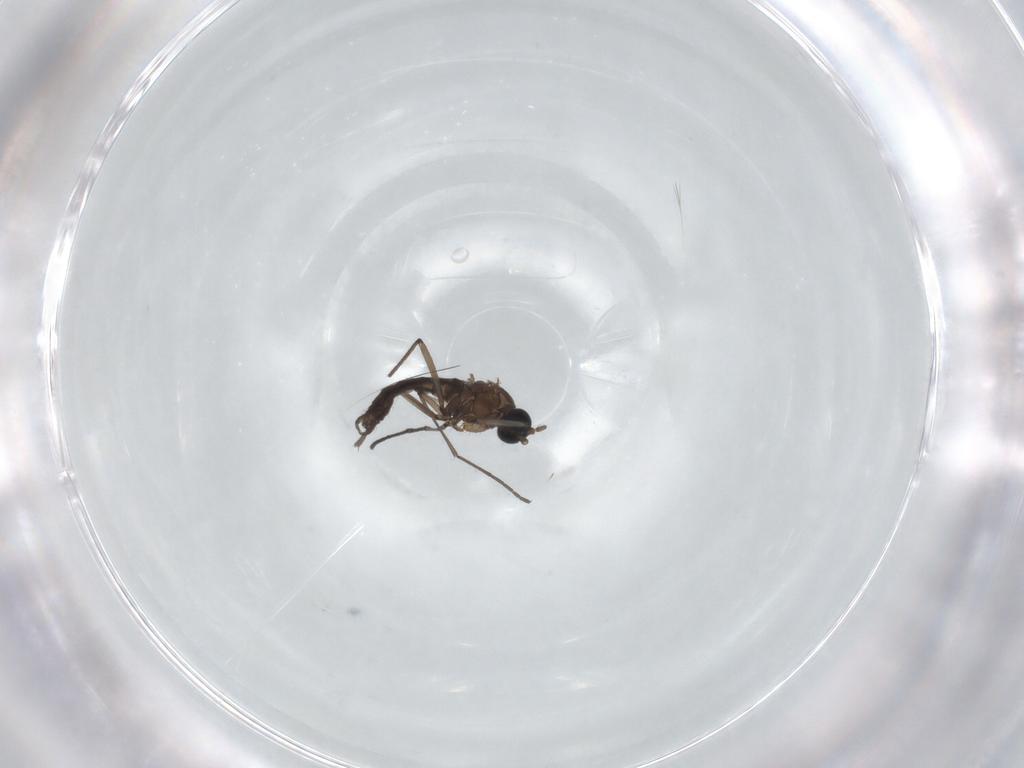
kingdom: Animalia
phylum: Arthropoda
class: Insecta
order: Diptera
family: Sciaridae
